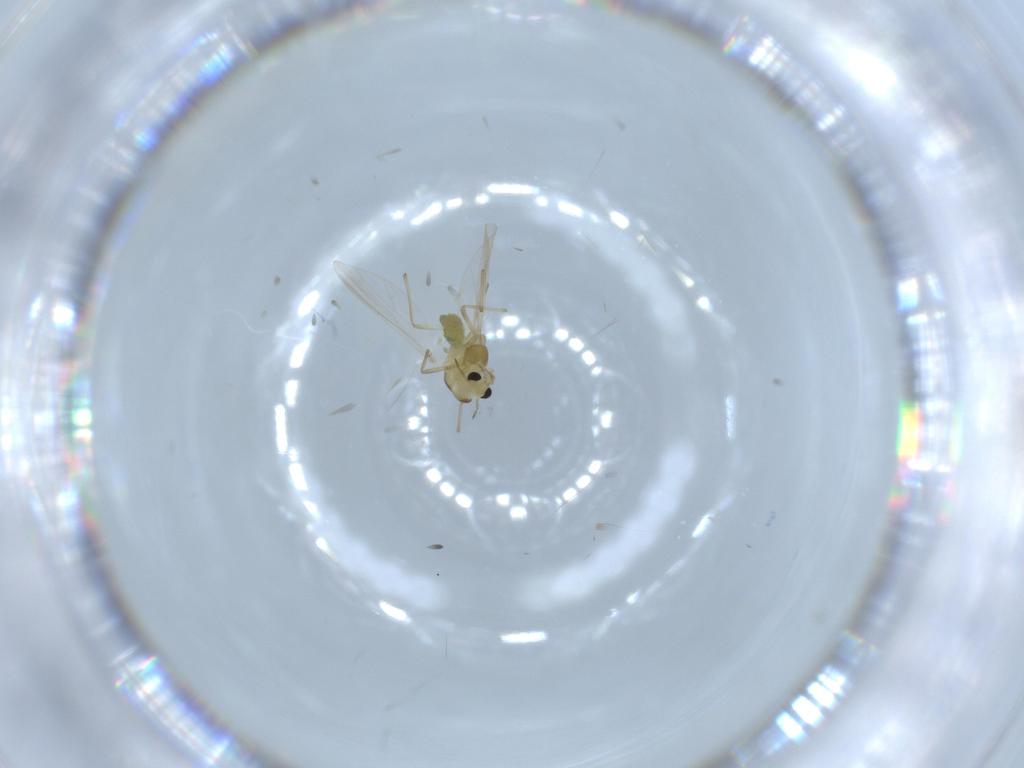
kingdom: Animalia
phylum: Arthropoda
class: Insecta
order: Diptera
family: Chironomidae
